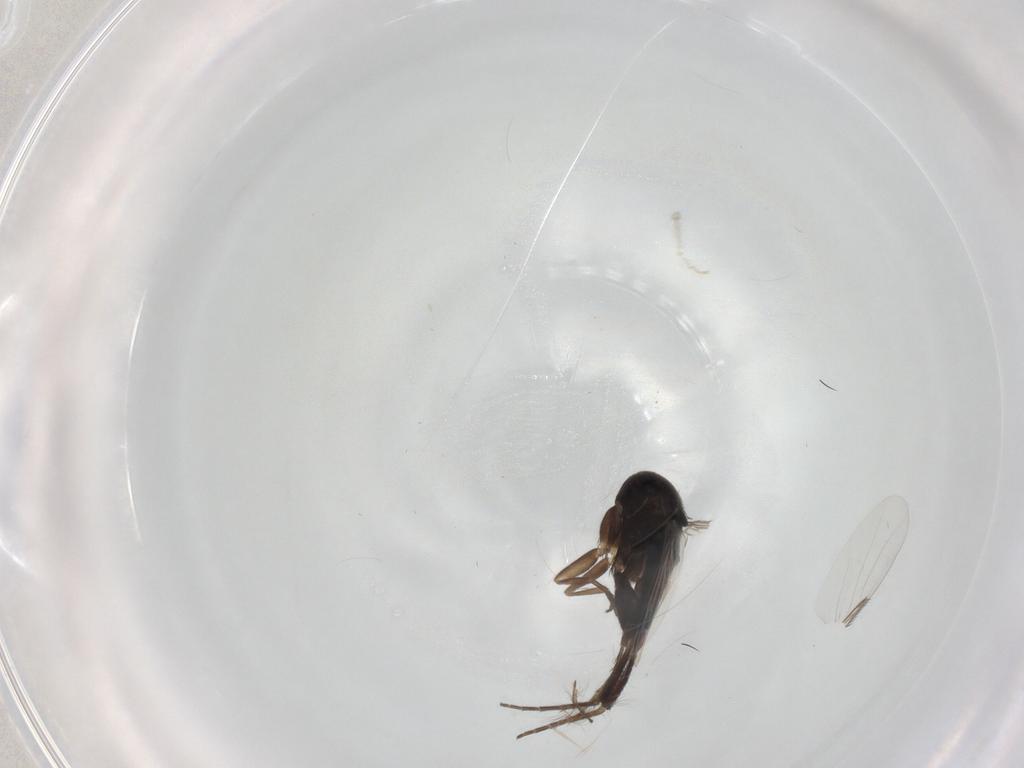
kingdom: Animalia
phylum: Arthropoda
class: Insecta
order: Diptera
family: Phoridae
